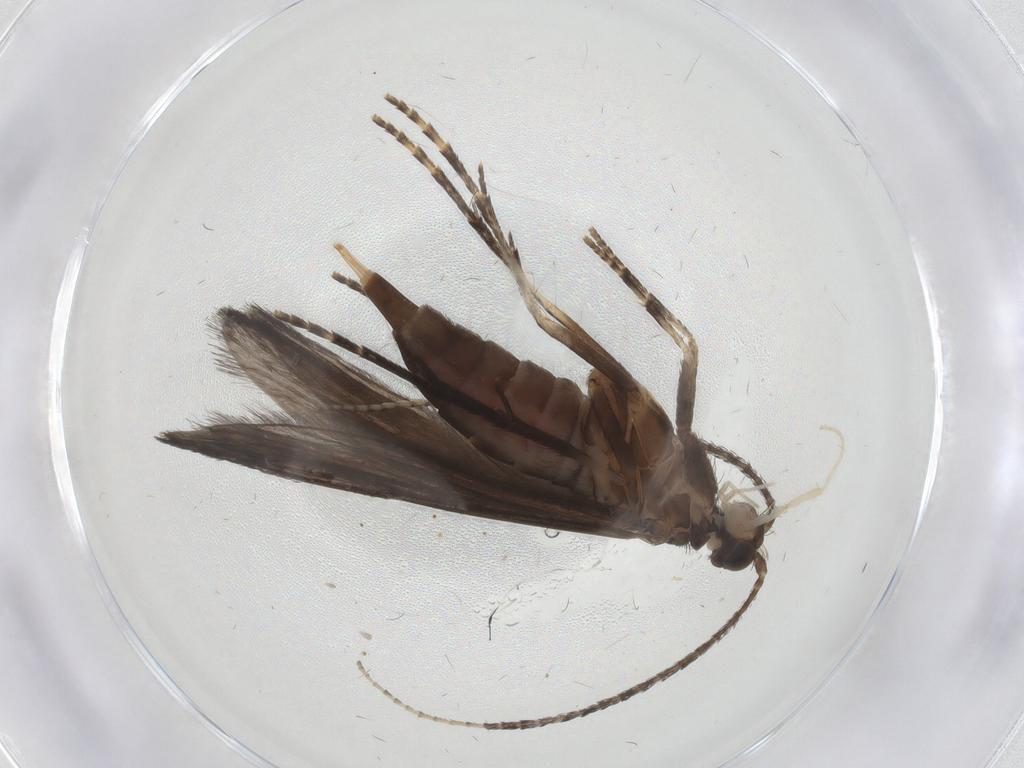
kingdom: Animalia
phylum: Arthropoda
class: Insecta
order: Trichoptera
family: Xiphocentronidae
